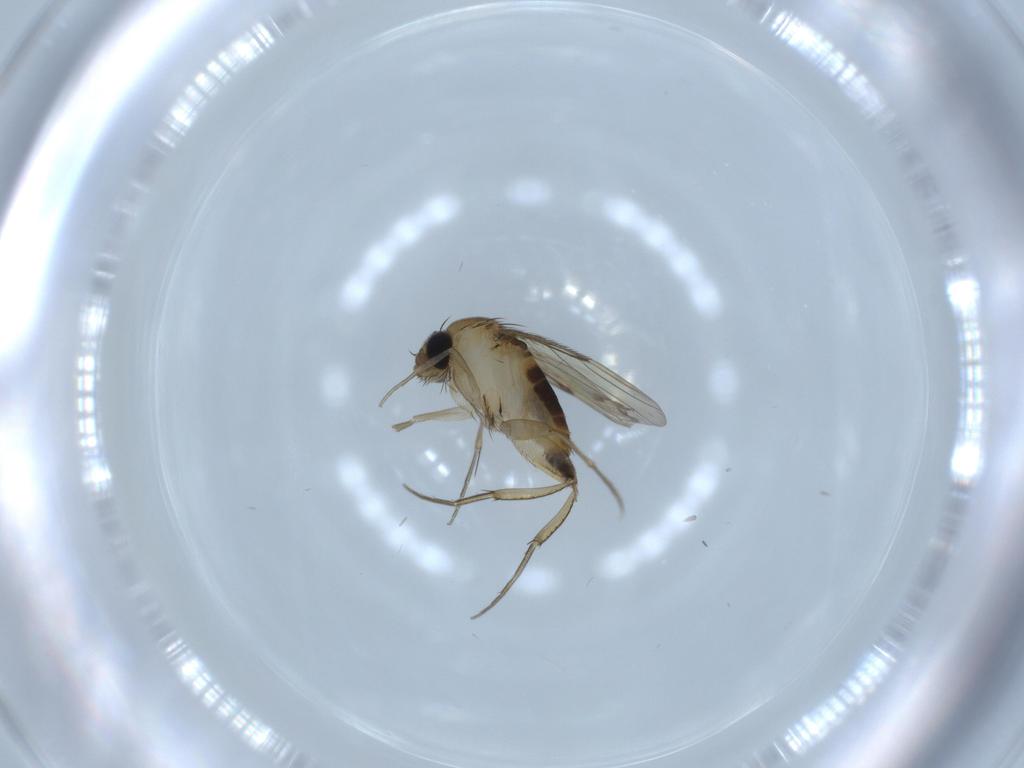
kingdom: Animalia
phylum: Arthropoda
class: Insecta
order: Diptera
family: Phoridae
